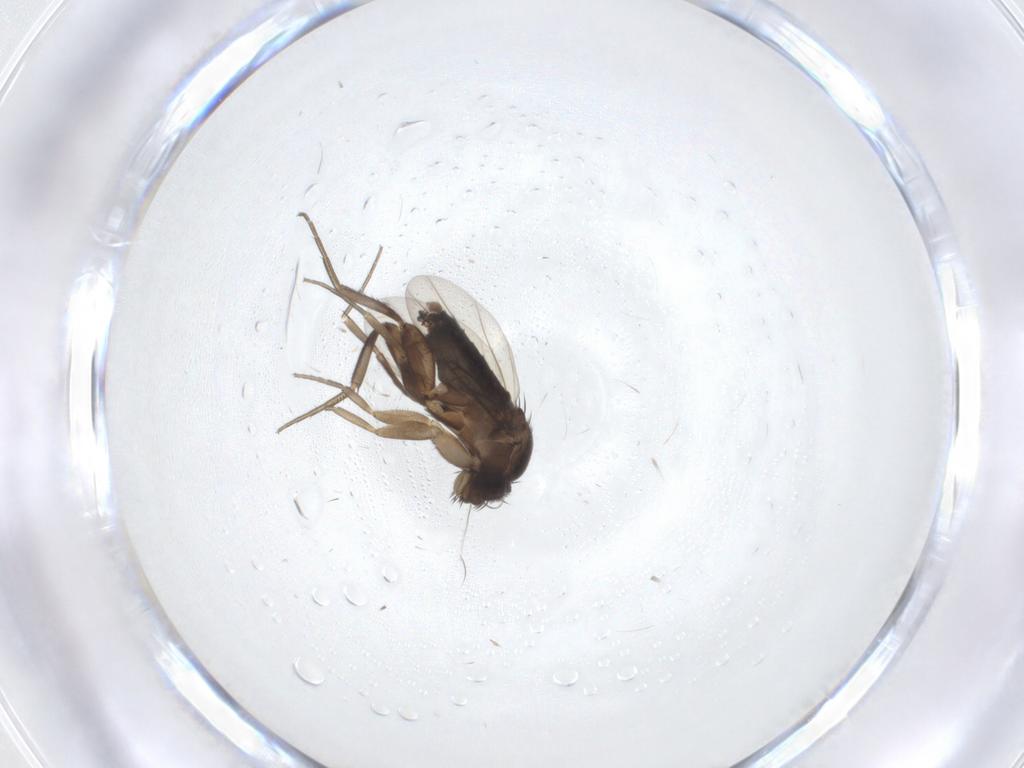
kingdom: Animalia
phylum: Arthropoda
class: Insecta
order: Diptera
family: Phoridae
